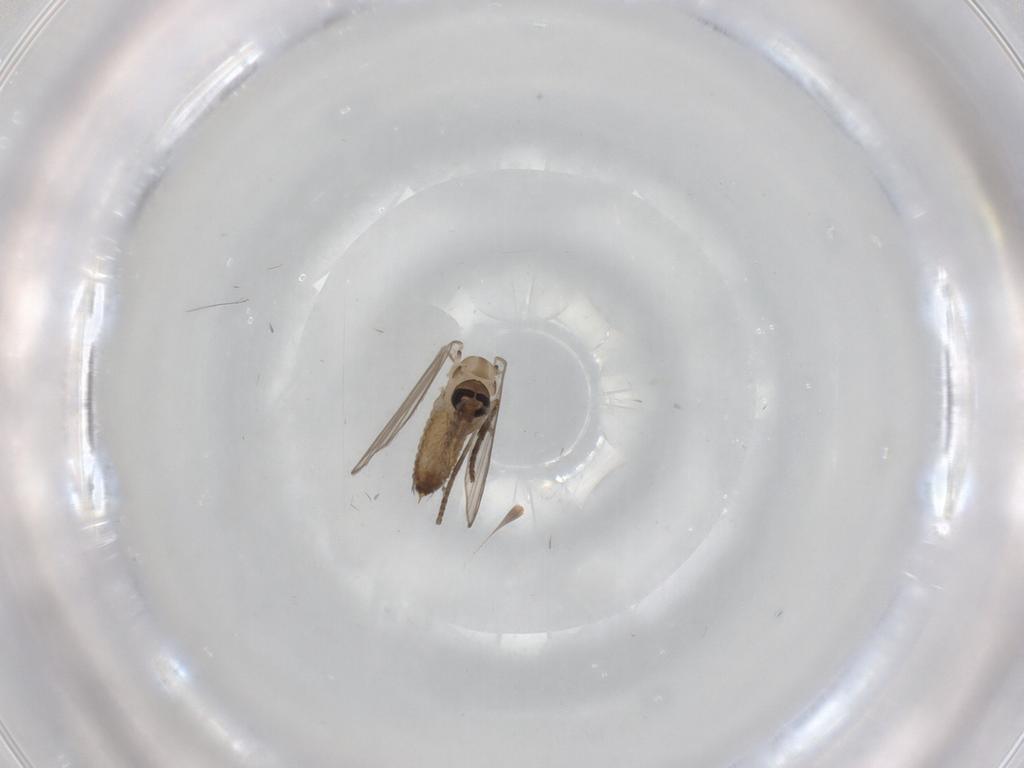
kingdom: Animalia
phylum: Arthropoda
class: Insecta
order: Diptera
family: Psychodidae
